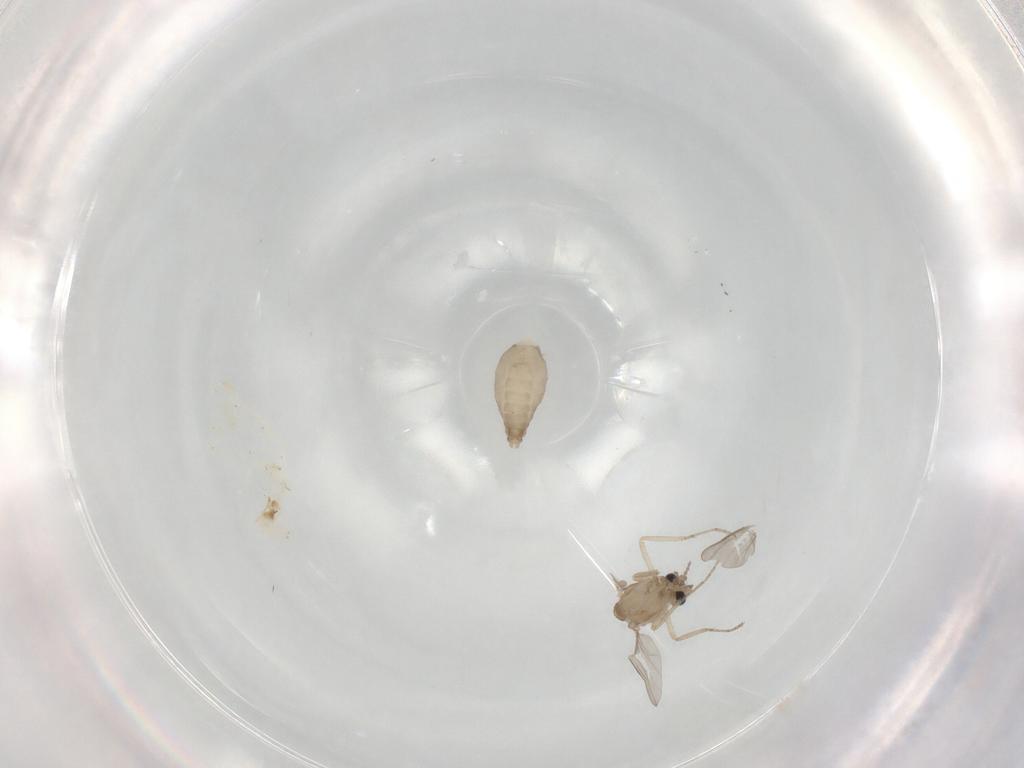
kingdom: Animalia
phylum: Arthropoda
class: Insecta
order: Diptera
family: Ceratopogonidae
